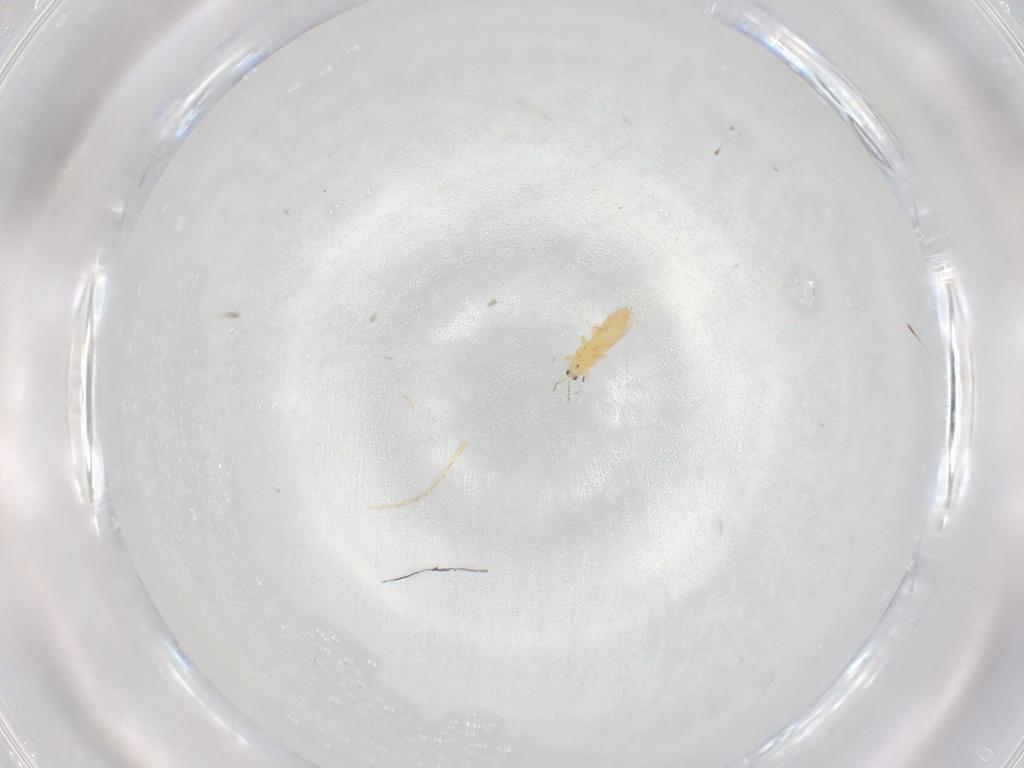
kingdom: Animalia
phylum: Arthropoda
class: Insecta
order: Thysanoptera
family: Thripidae
